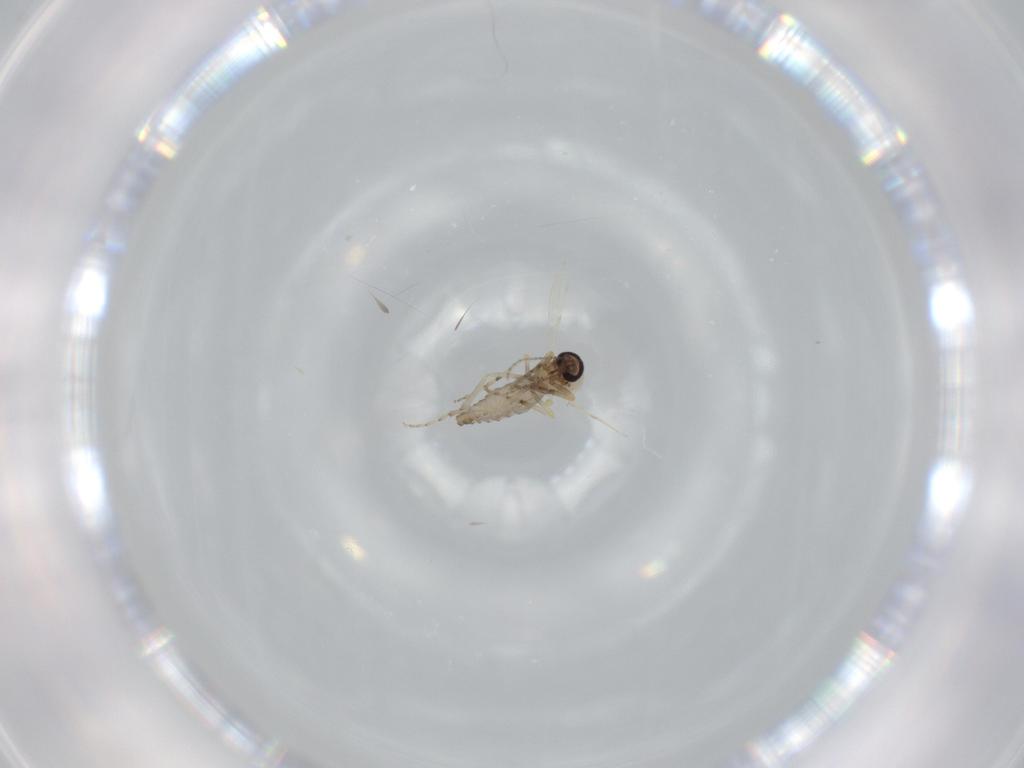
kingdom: Animalia
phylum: Arthropoda
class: Insecta
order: Diptera
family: Ceratopogonidae
